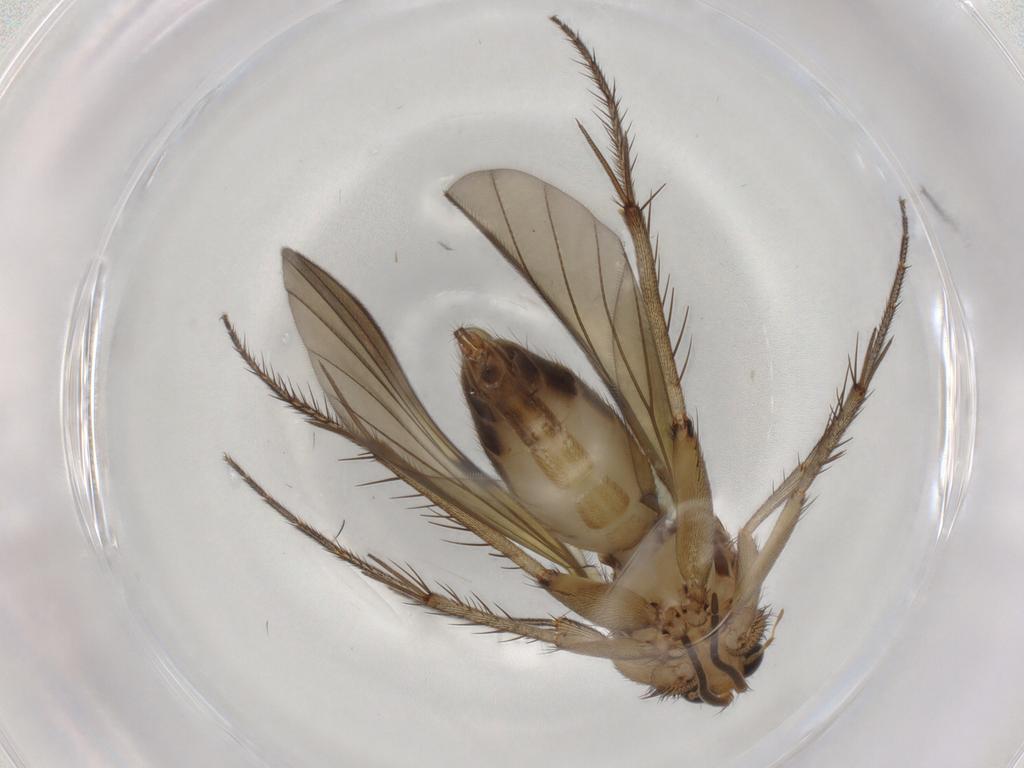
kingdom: Animalia
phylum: Arthropoda
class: Insecta
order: Diptera
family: Mycetophilidae
